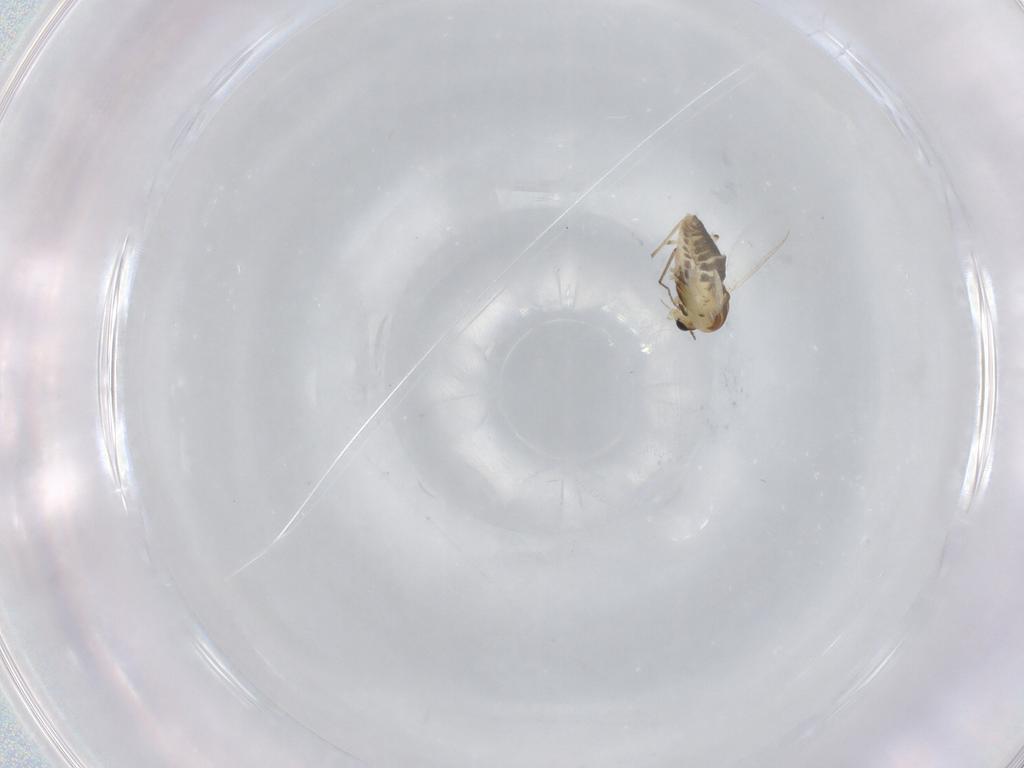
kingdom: Animalia
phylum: Arthropoda
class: Insecta
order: Diptera
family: Chironomidae
